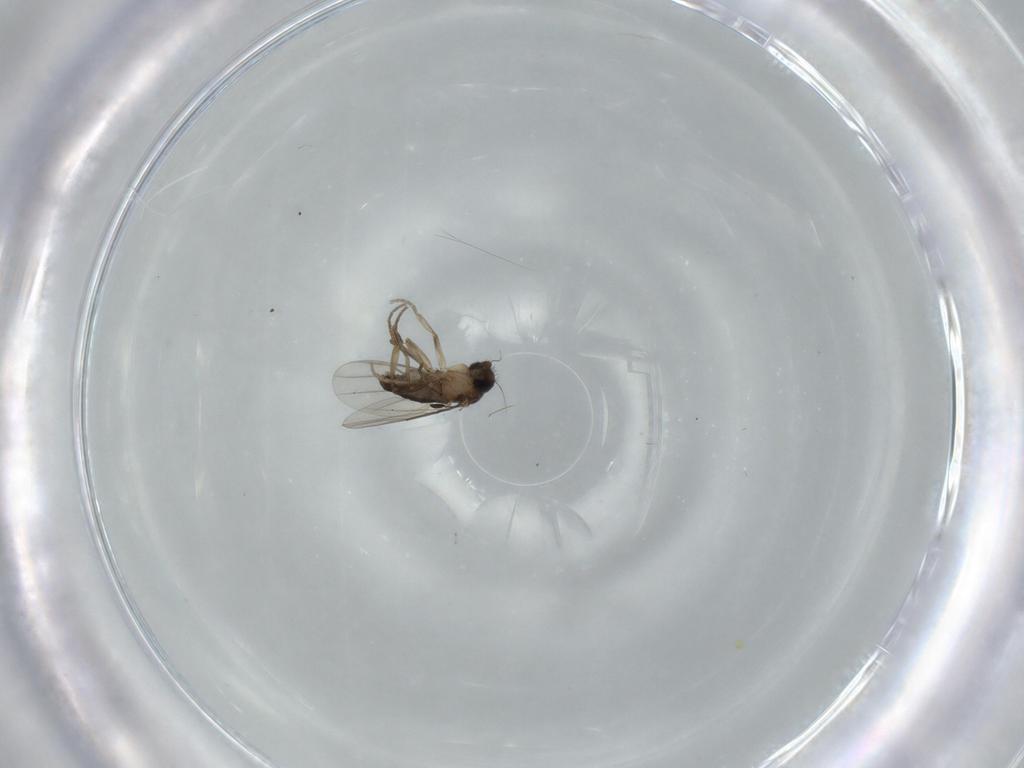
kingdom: Animalia
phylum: Arthropoda
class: Insecta
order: Diptera
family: Phoridae
